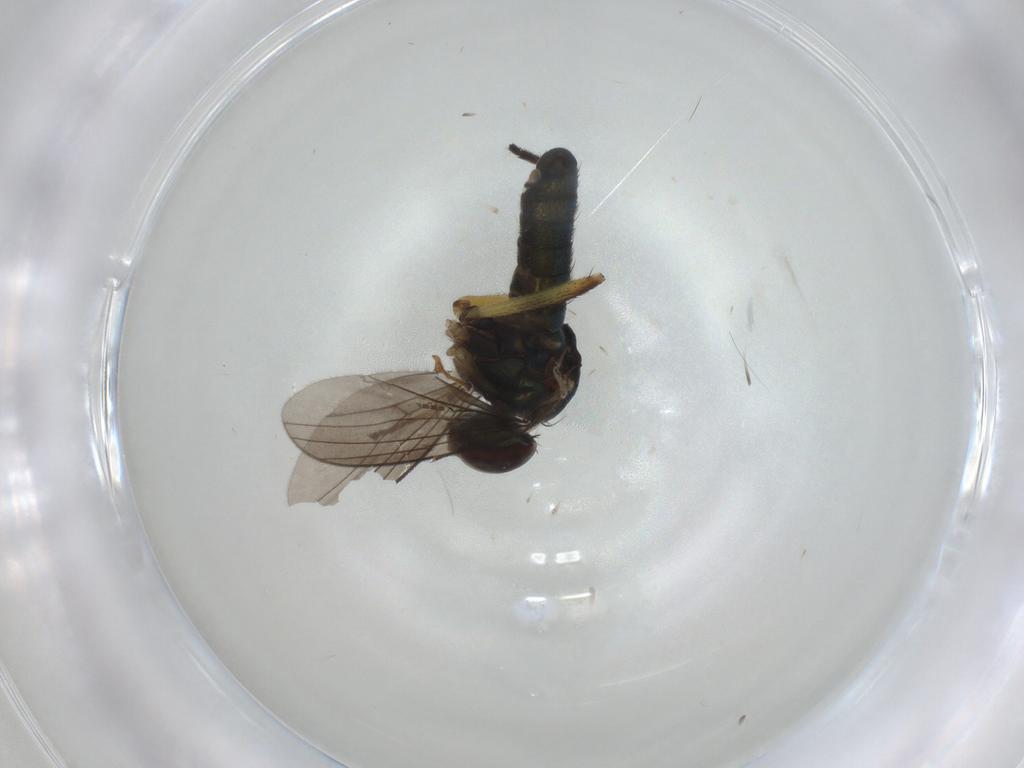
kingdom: Animalia
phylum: Arthropoda
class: Insecta
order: Diptera
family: Dolichopodidae
